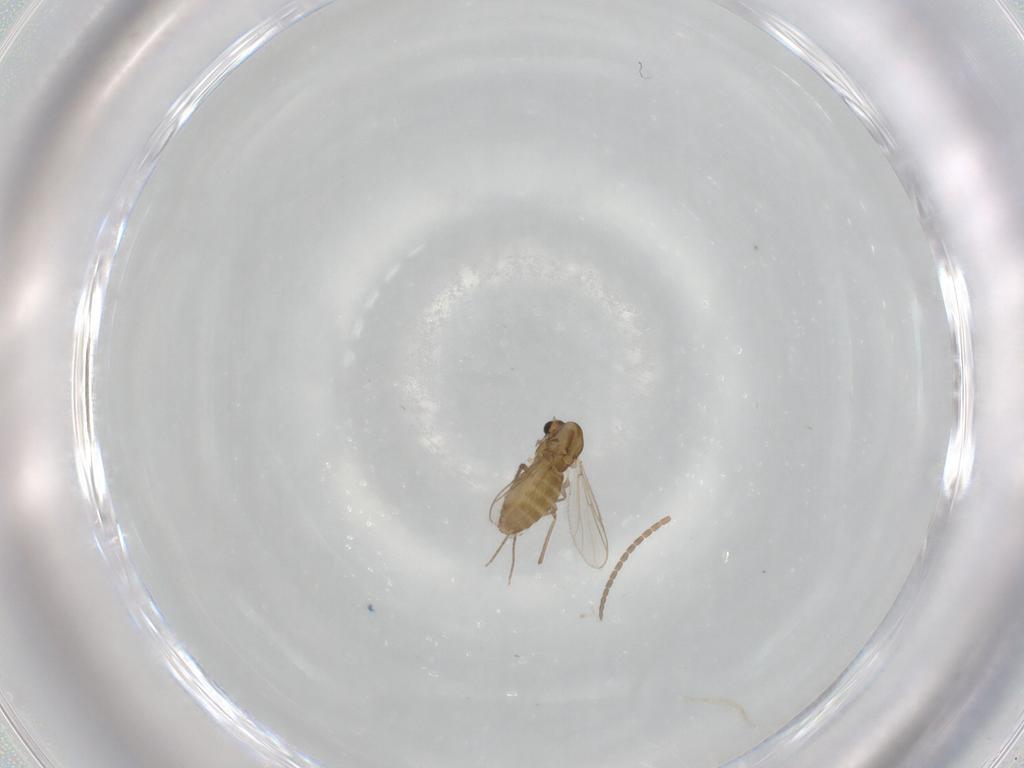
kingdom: Animalia
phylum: Arthropoda
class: Insecta
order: Diptera
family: Chironomidae
